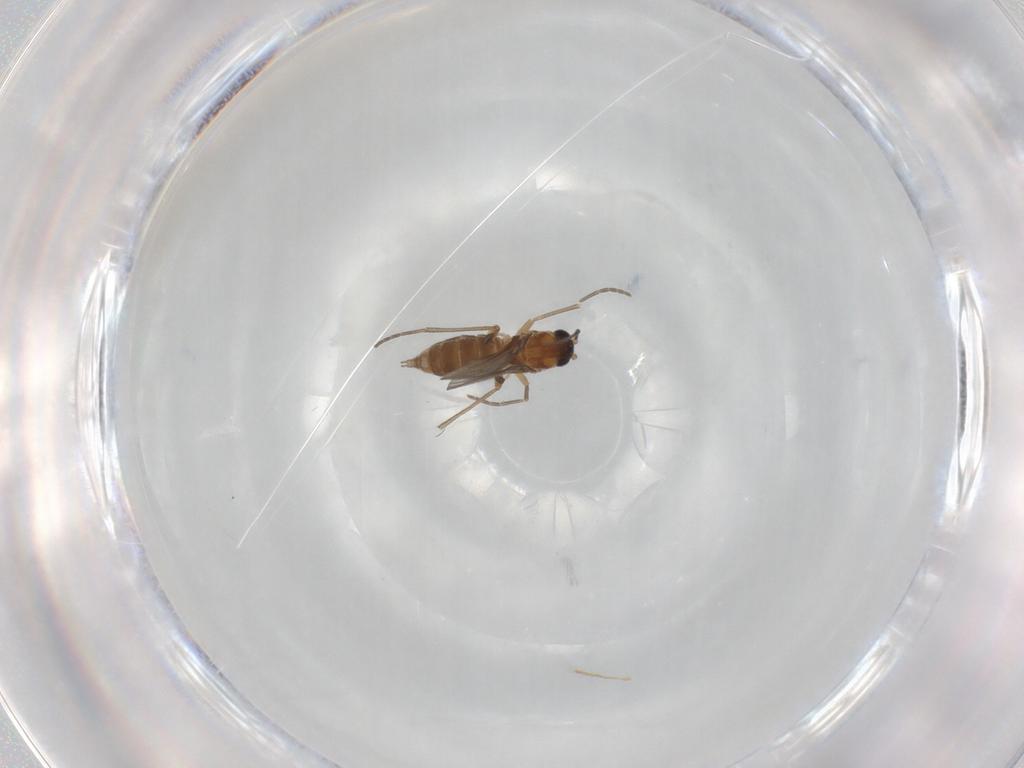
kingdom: Animalia
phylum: Arthropoda
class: Insecta
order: Diptera
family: Sciaridae
